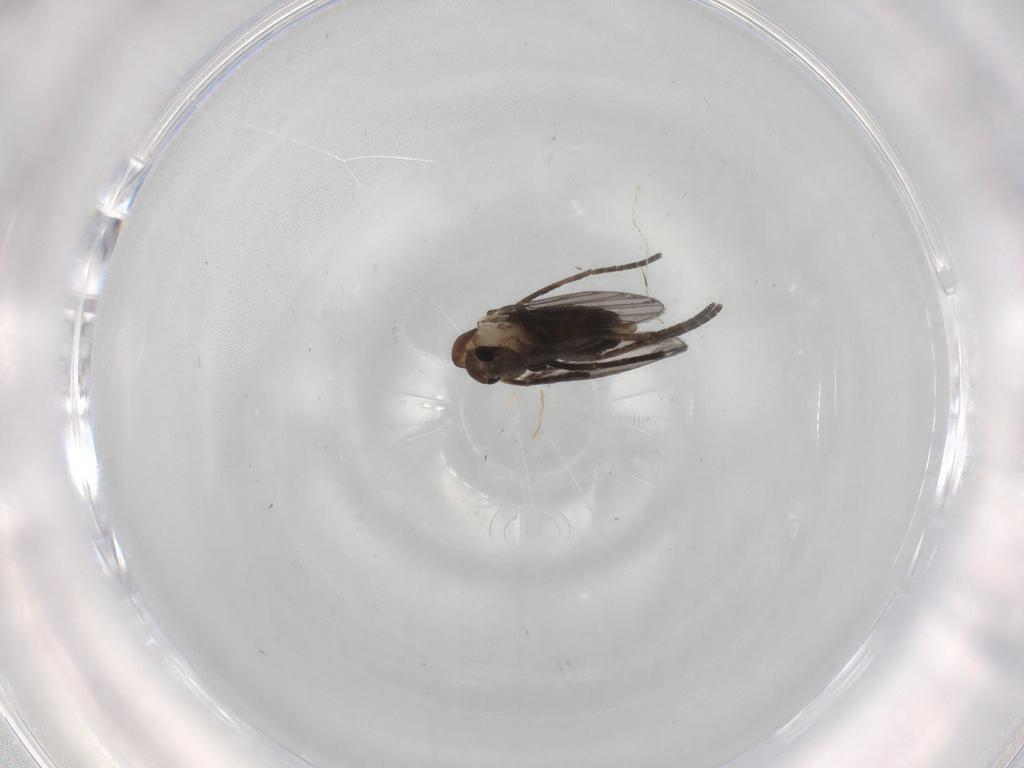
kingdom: Animalia
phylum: Arthropoda
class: Insecta
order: Diptera
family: Psychodidae
